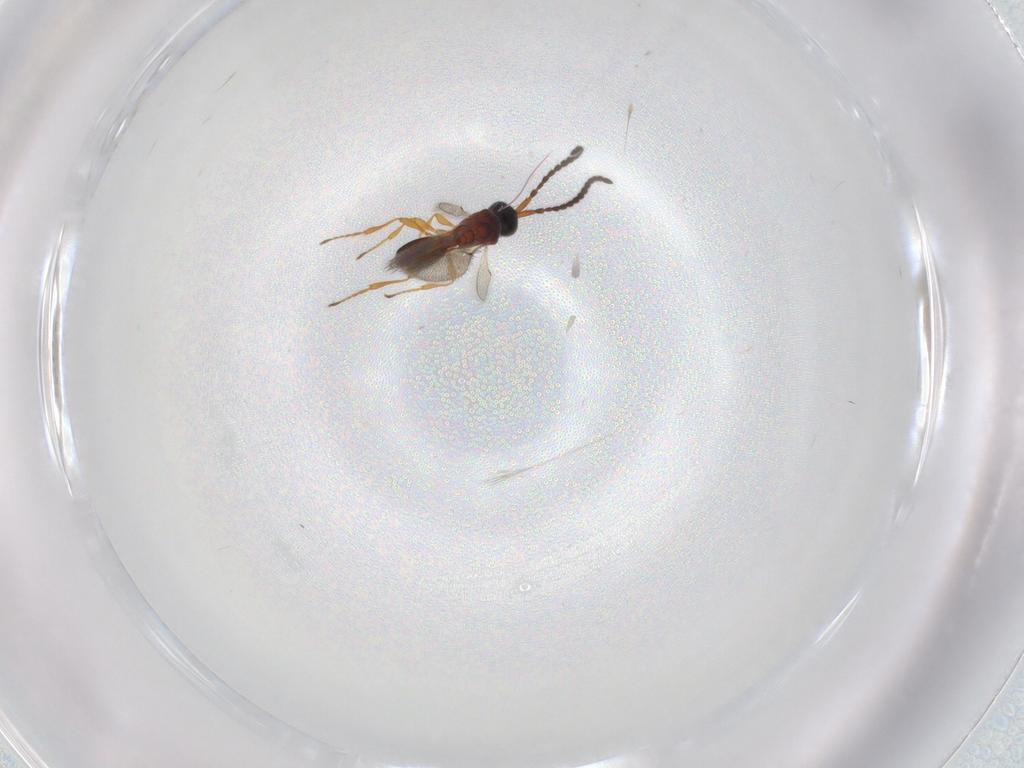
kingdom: Animalia
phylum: Arthropoda
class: Insecta
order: Hymenoptera
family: Diapriidae
